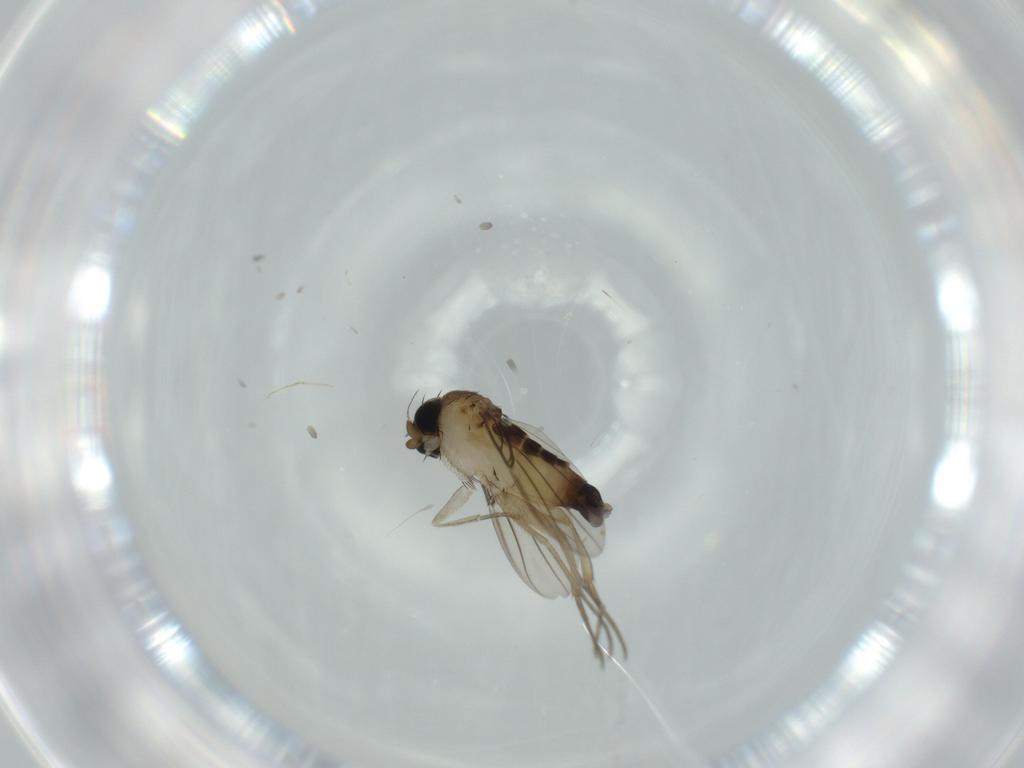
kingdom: Animalia
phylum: Arthropoda
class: Insecta
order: Diptera
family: Phoridae
